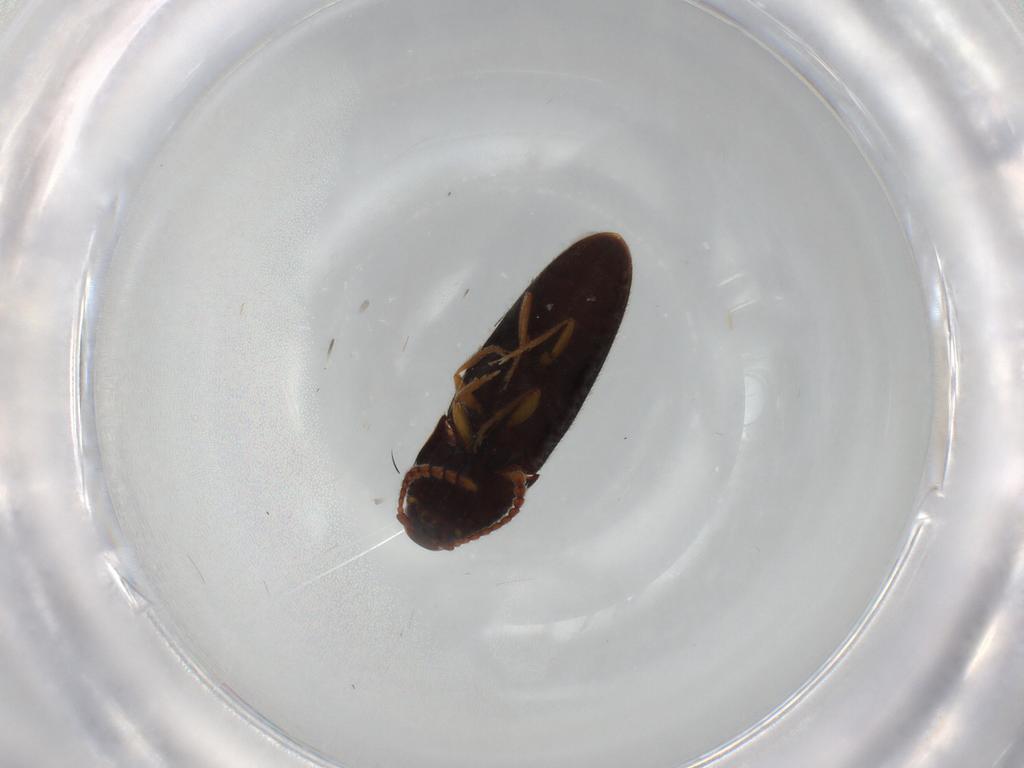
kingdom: Animalia
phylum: Arthropoda
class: Insecta
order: Coleoptera
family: Elateridae
